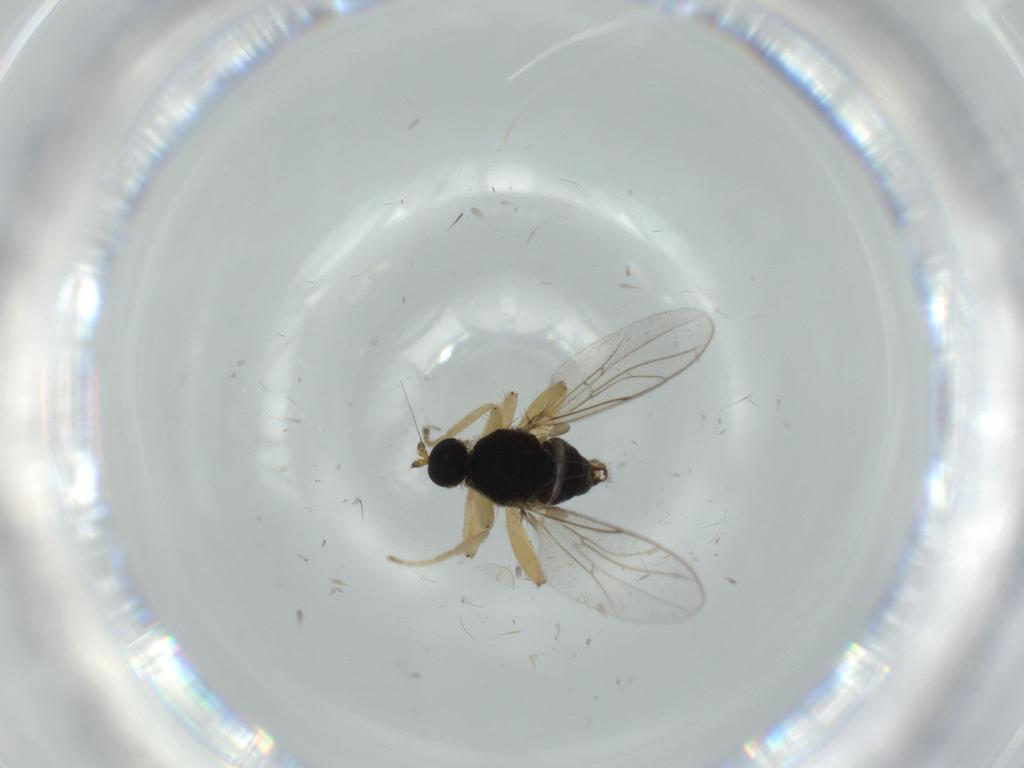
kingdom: Animalia
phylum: Arthropoda
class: Insecta
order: Diptera
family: Hybotidae
